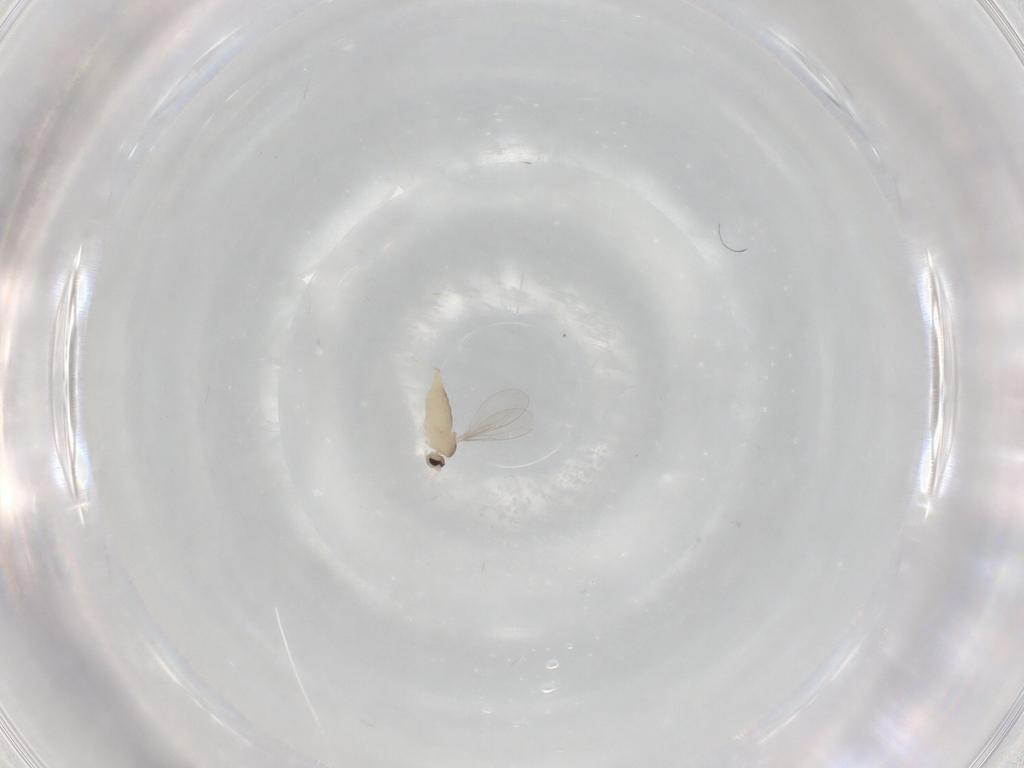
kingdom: Animalia
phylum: Arthropoda
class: Insecta
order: Diptera
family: Cecidomyiidae
